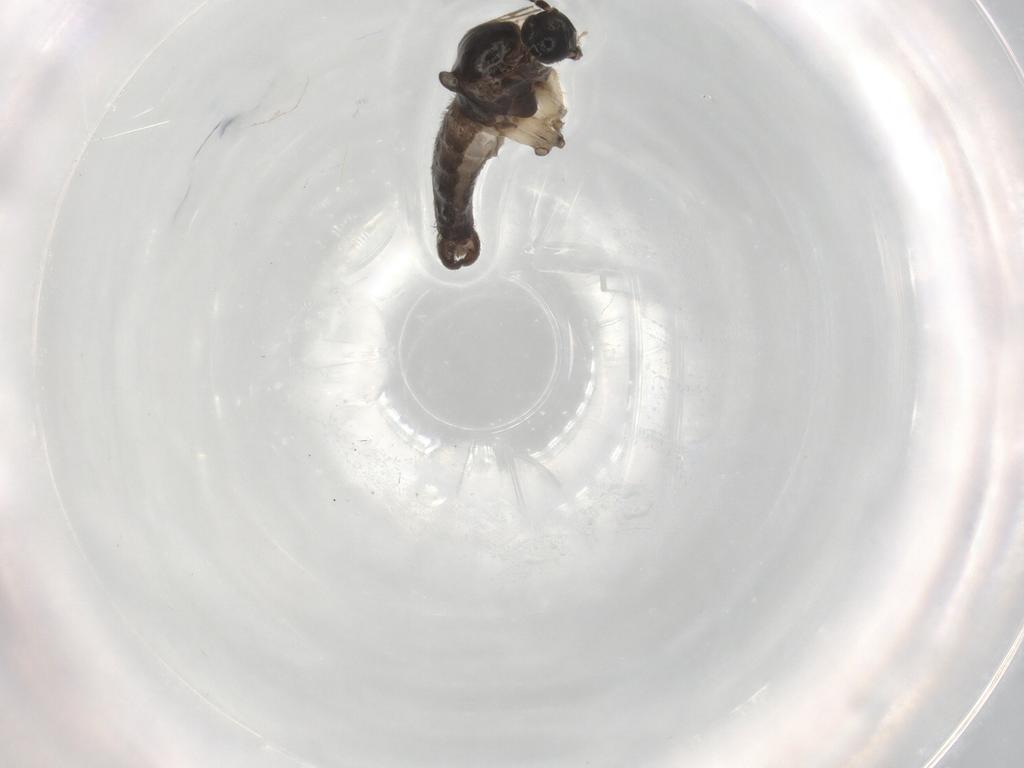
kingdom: Animalia
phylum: Arthropoda
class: Insecta
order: Diptera
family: Sciaridae
